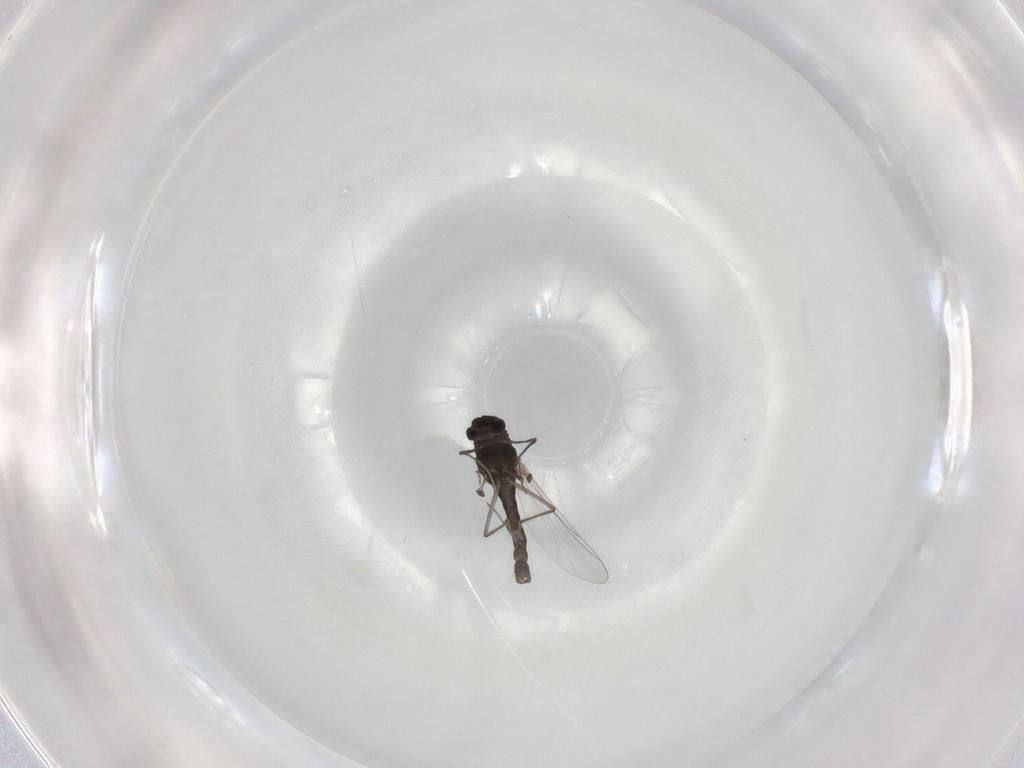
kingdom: Animalia
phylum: Arthropoda
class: Insecta
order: Diptera
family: Chironomidae
